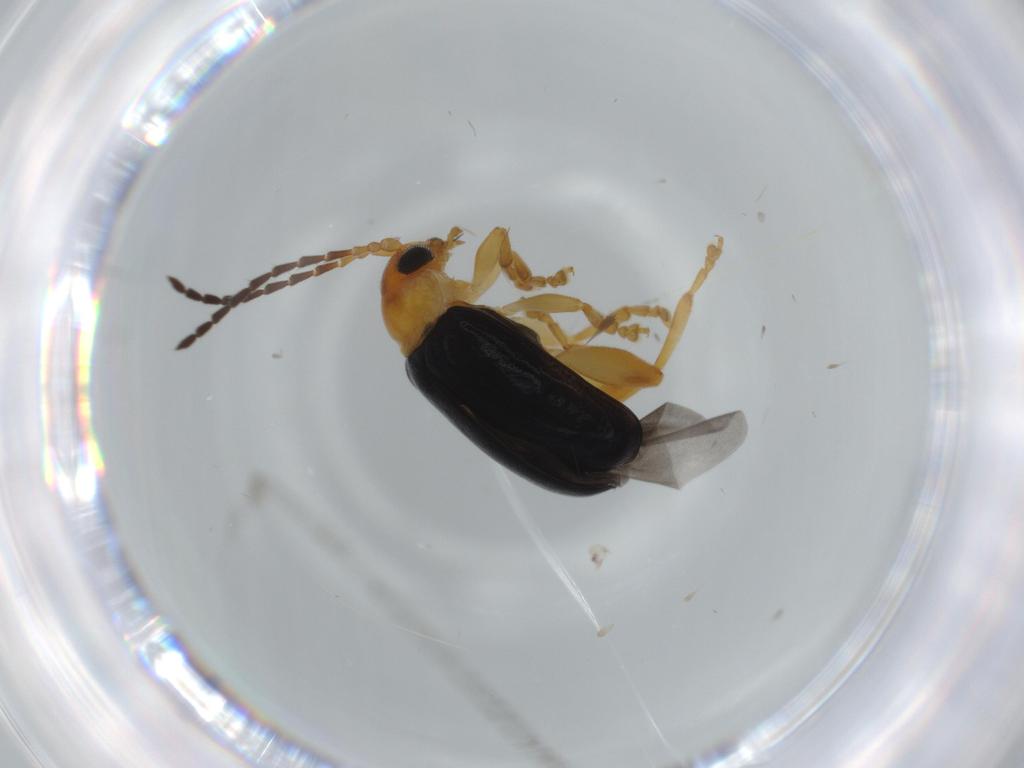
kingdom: Animalia
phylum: Arthropoda
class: Insecta
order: Coleoptera
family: Chrysomelidae
